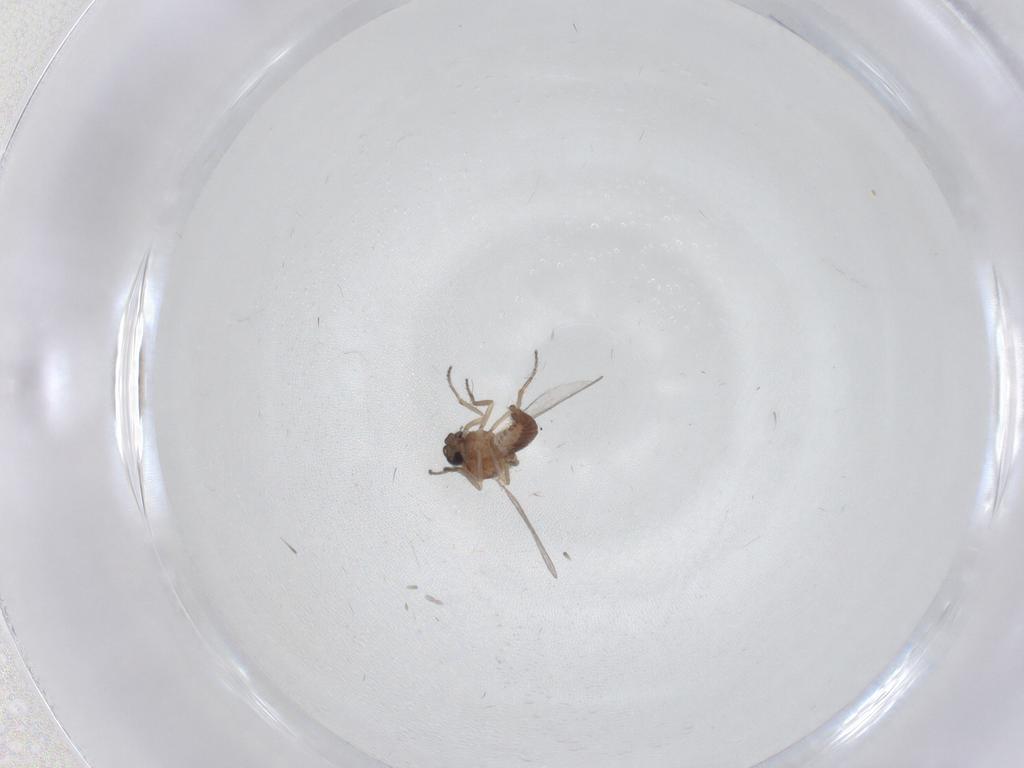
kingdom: Animalia
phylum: Arthropoda
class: Insecta
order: Diptera
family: Ceratopogonidae
